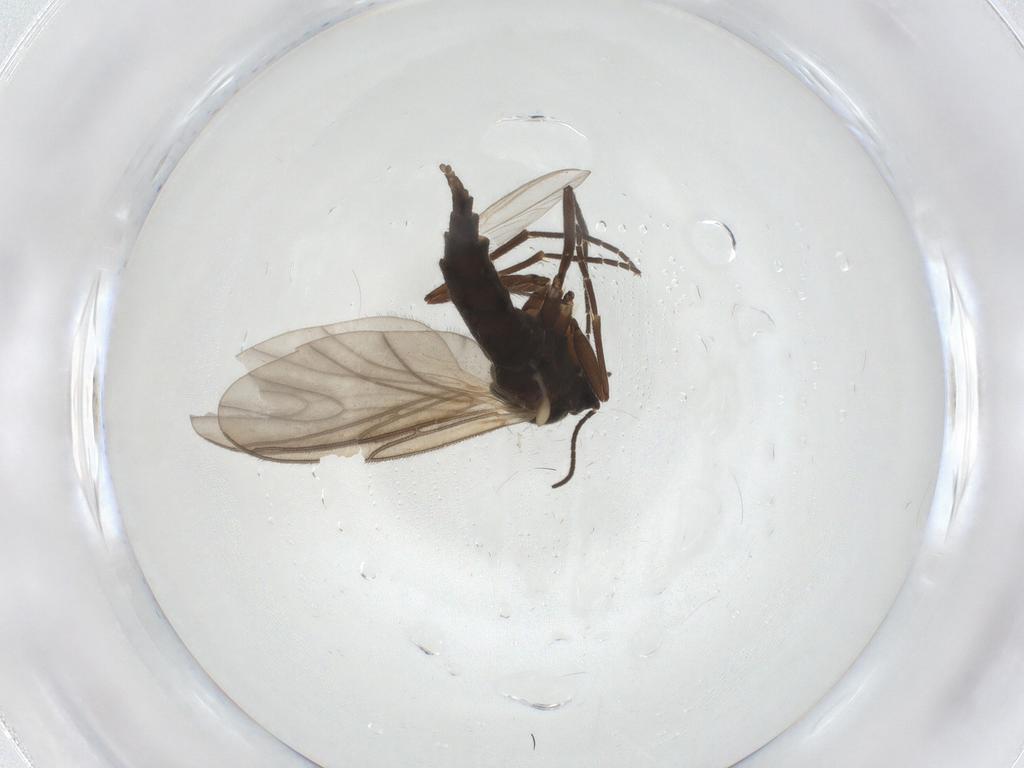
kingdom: Animalia
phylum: Arthropoda
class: Insecta
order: Diptera
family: Sciaridae
